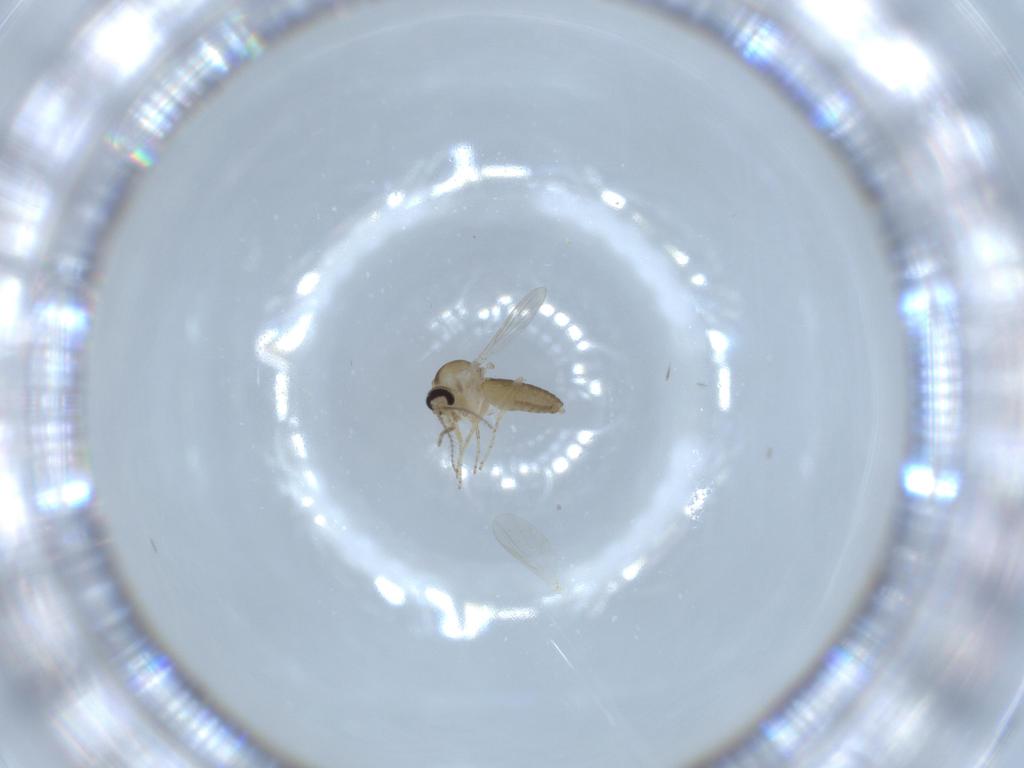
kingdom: Animalia
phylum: Arthropoda
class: Insecta
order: Diptera
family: Ceratopogonidae
